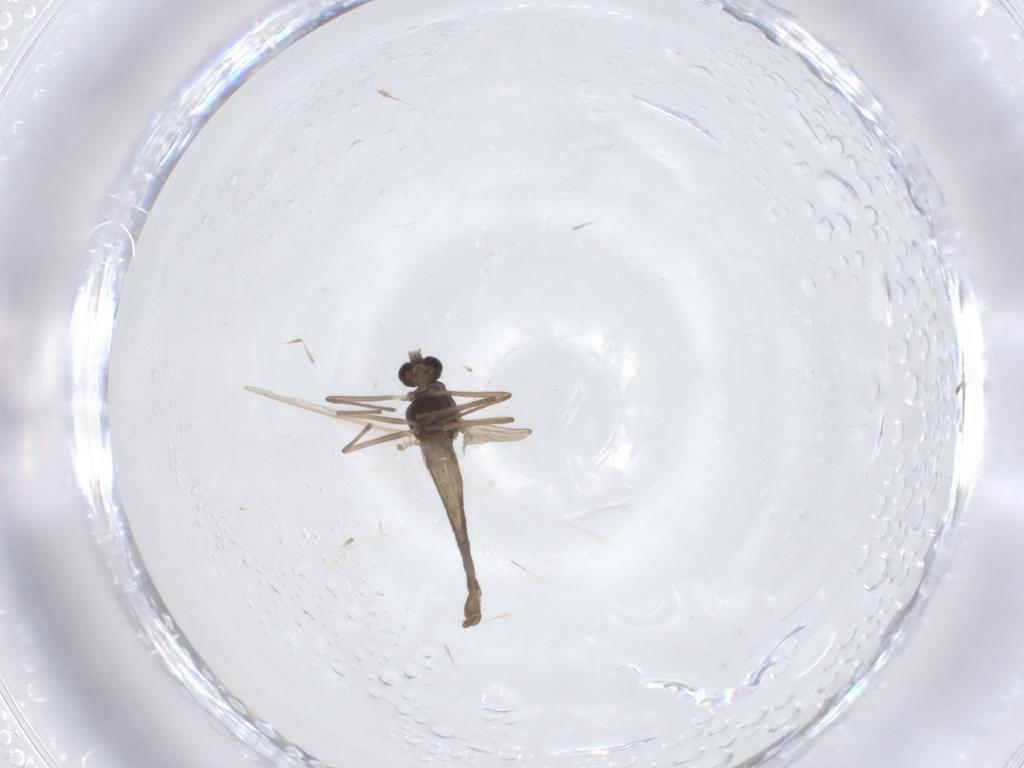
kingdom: Animalia
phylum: Arthropoda
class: Insecta
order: Diptera
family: Chironomidae
